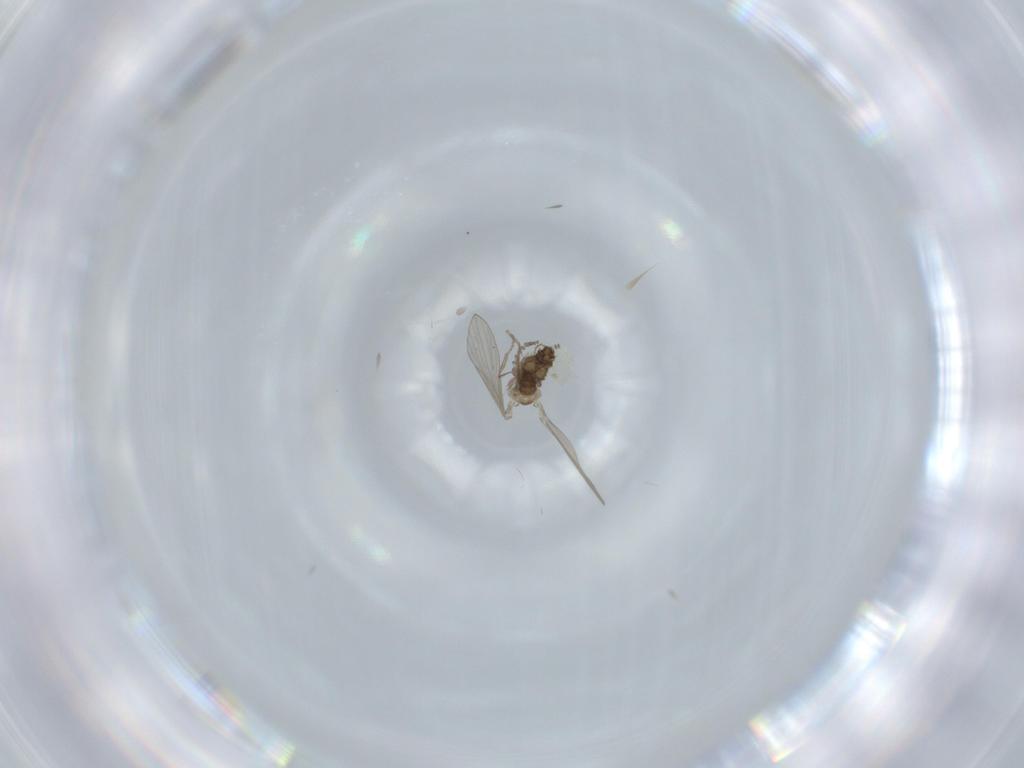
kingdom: Animalia
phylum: Arthropoda
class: Insecta
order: Diptera
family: Psychodidae
